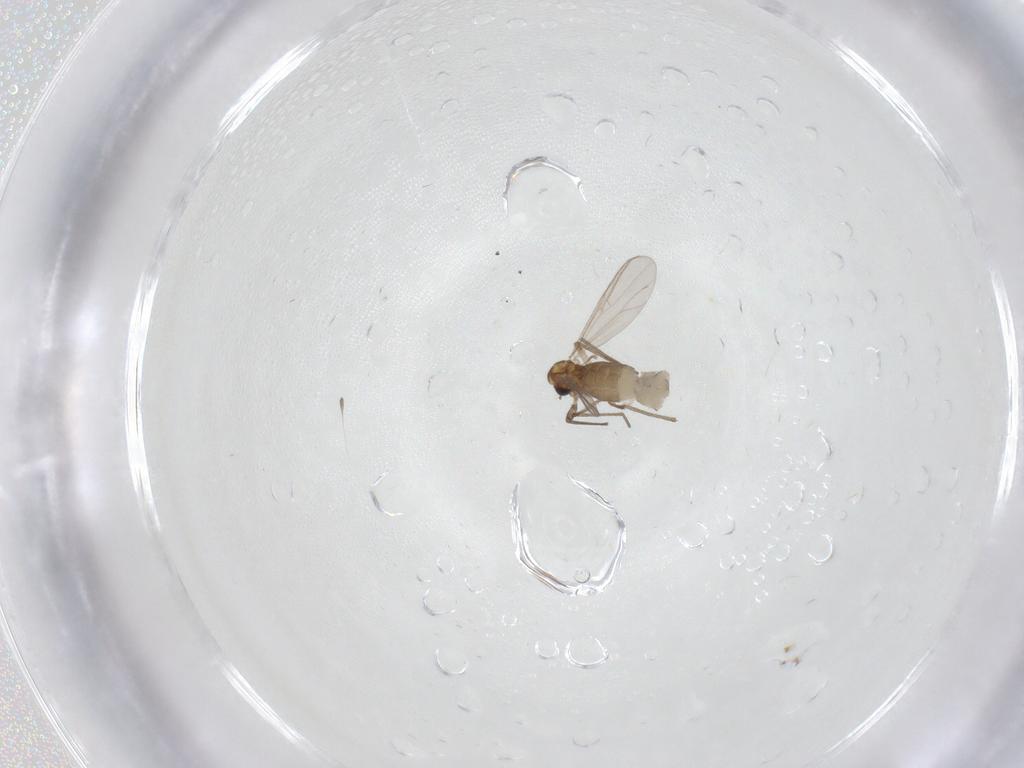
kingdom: Animalia
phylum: Arthropoda
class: Insecta
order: Diptera
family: Chironomidae
